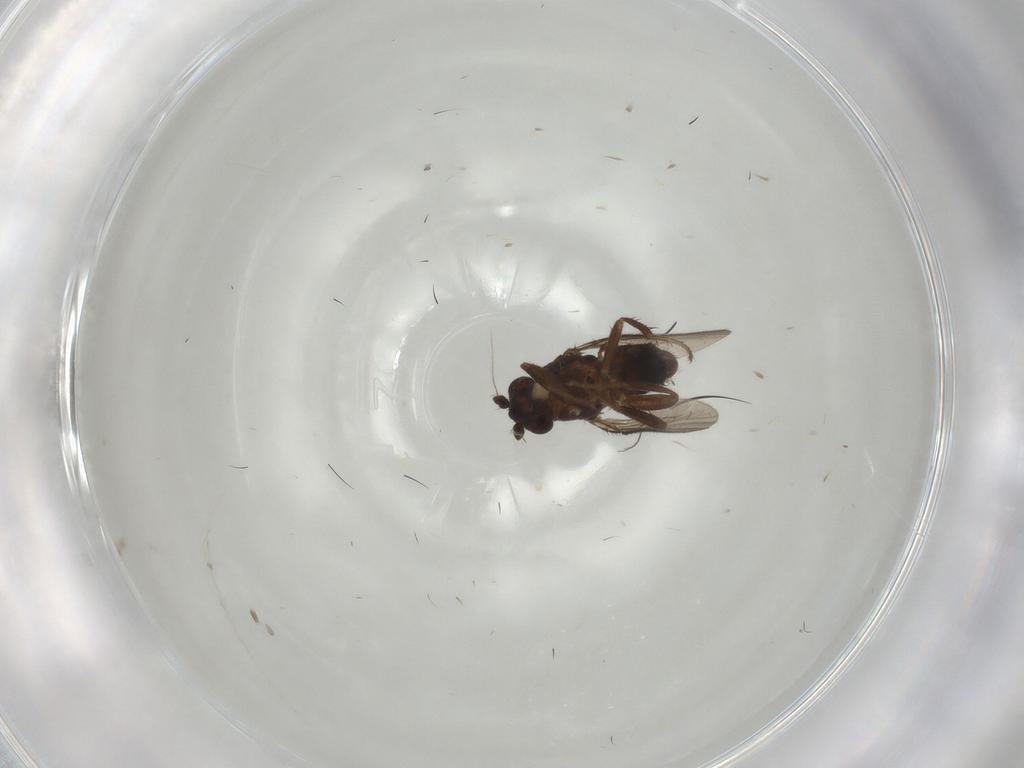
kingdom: Animalia
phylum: Arthropoda
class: Insecta
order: Diptera
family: Sphaeroceridae
